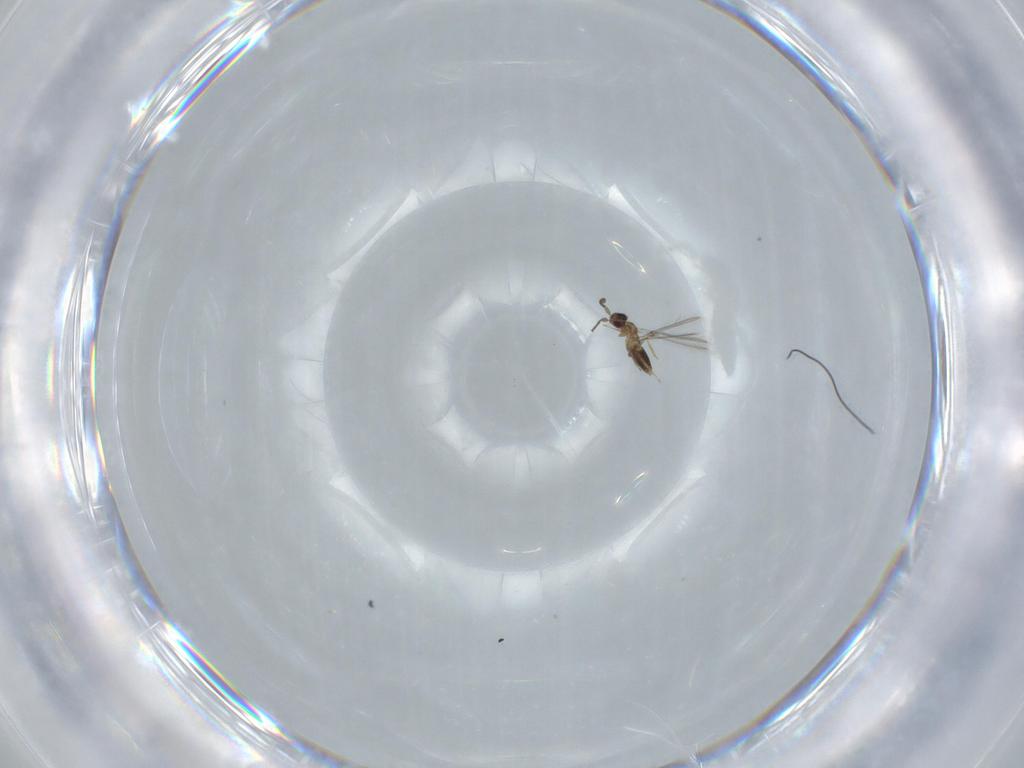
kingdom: Animalia
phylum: Arthropoda
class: Insecta
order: Hymenoptera
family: Mymaridae
